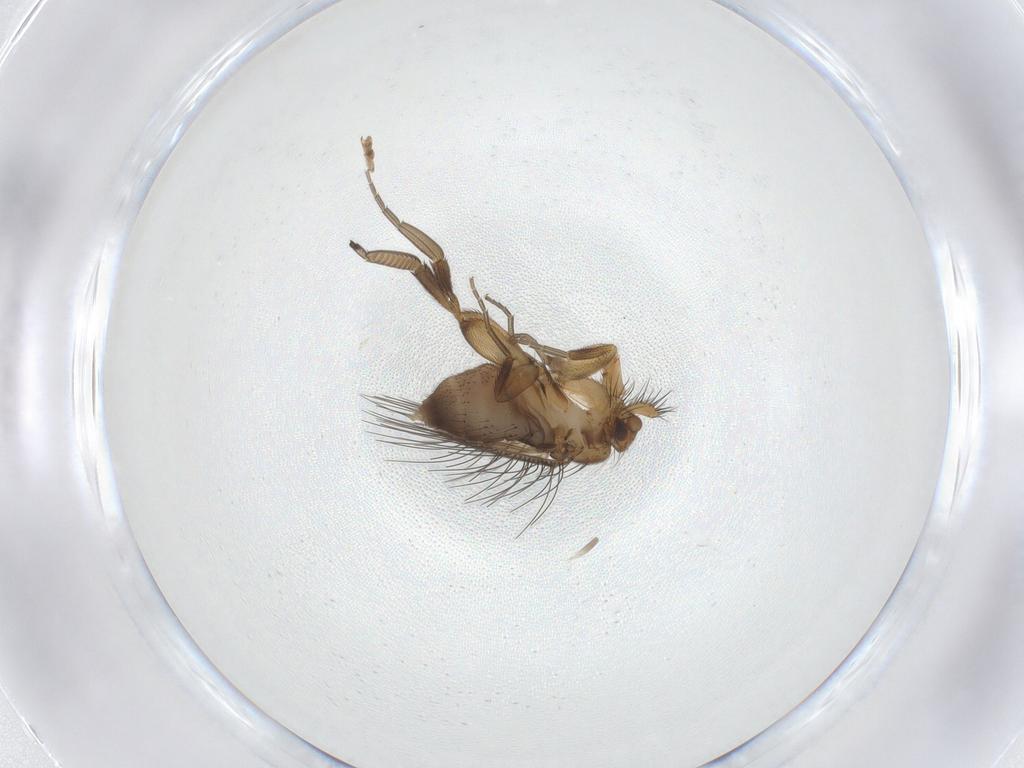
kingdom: Animalia
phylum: Arthropoda
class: Insecta
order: Diptera
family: Phoridae
